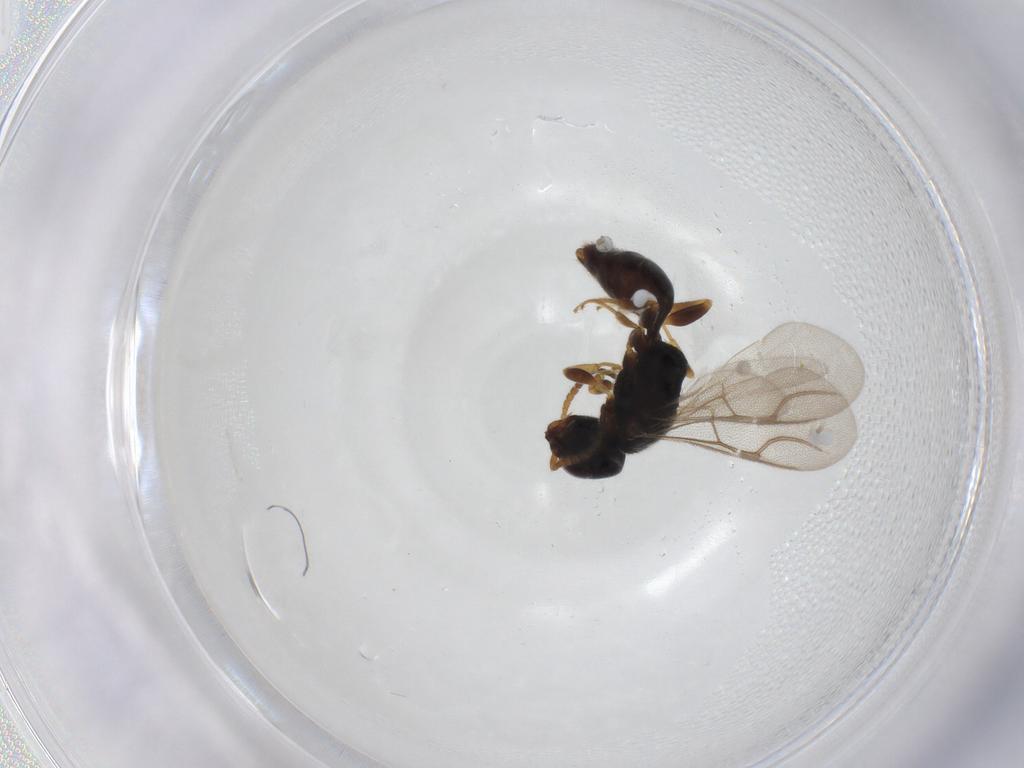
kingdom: Animalia
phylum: Arthropoda
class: Insecta
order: Hymenoptera
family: Bethylidae
